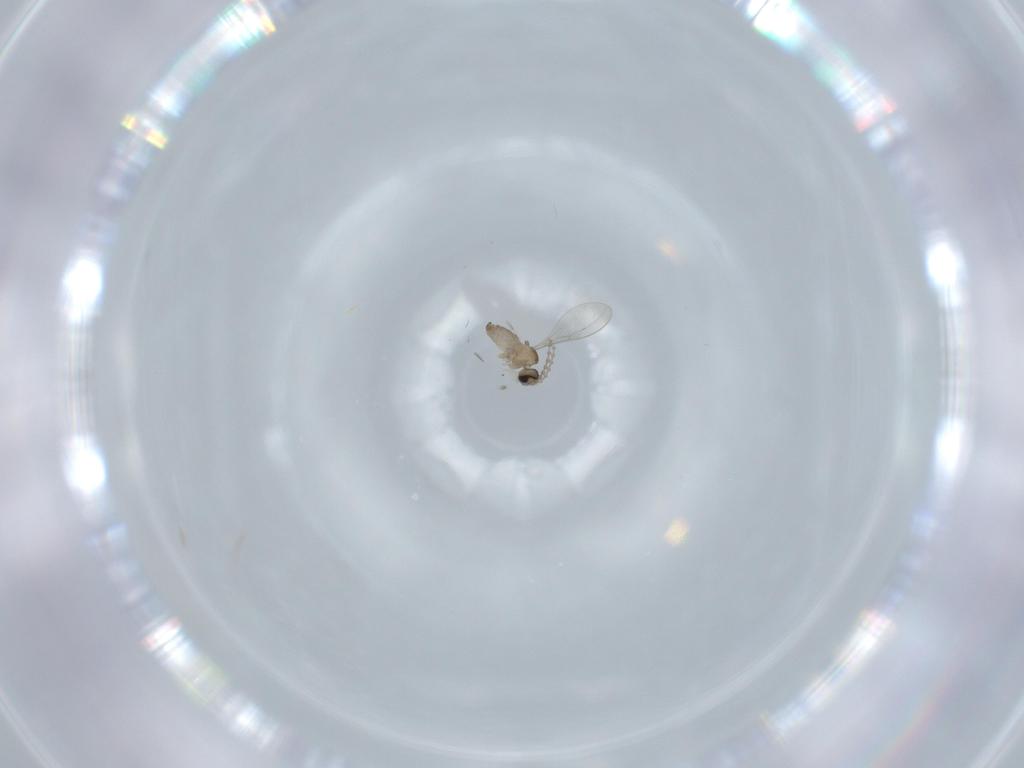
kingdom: Animalia
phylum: Arthropoda
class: Insecta
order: Diptera
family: Cecidomyiidae
